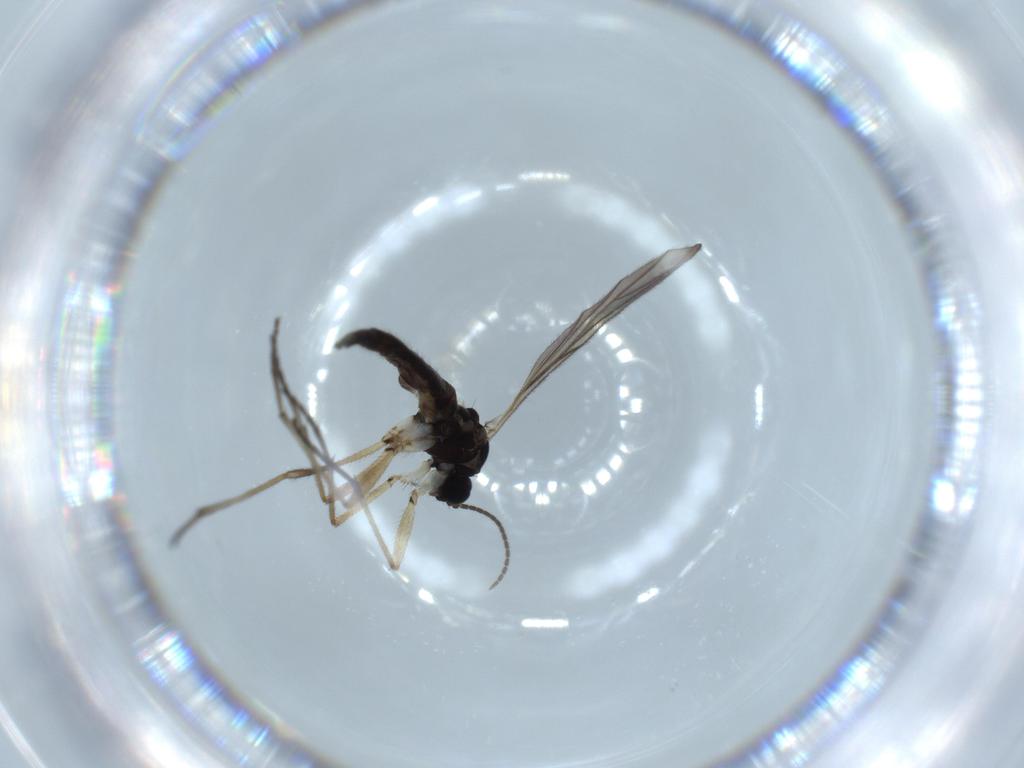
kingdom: Animalia
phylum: Arthropoda
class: Insecta
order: Diptera
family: Sciaridae
